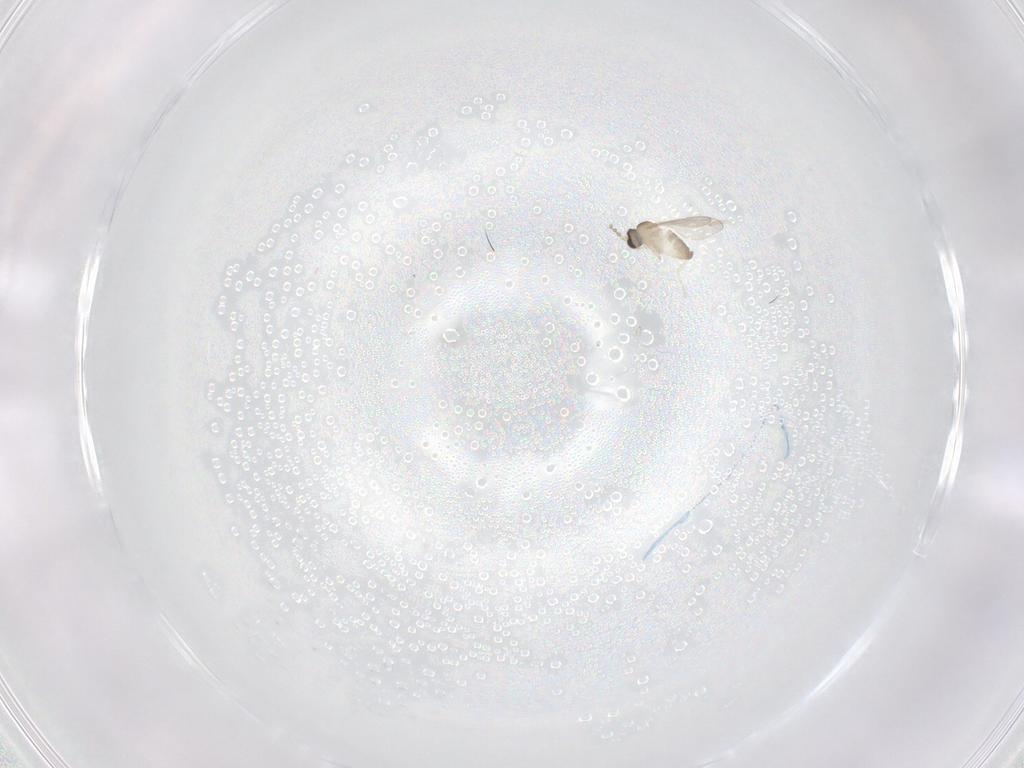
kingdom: Animalia
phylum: Arthropoda
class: Insecta
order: Diptera
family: Cecidomyiidae
